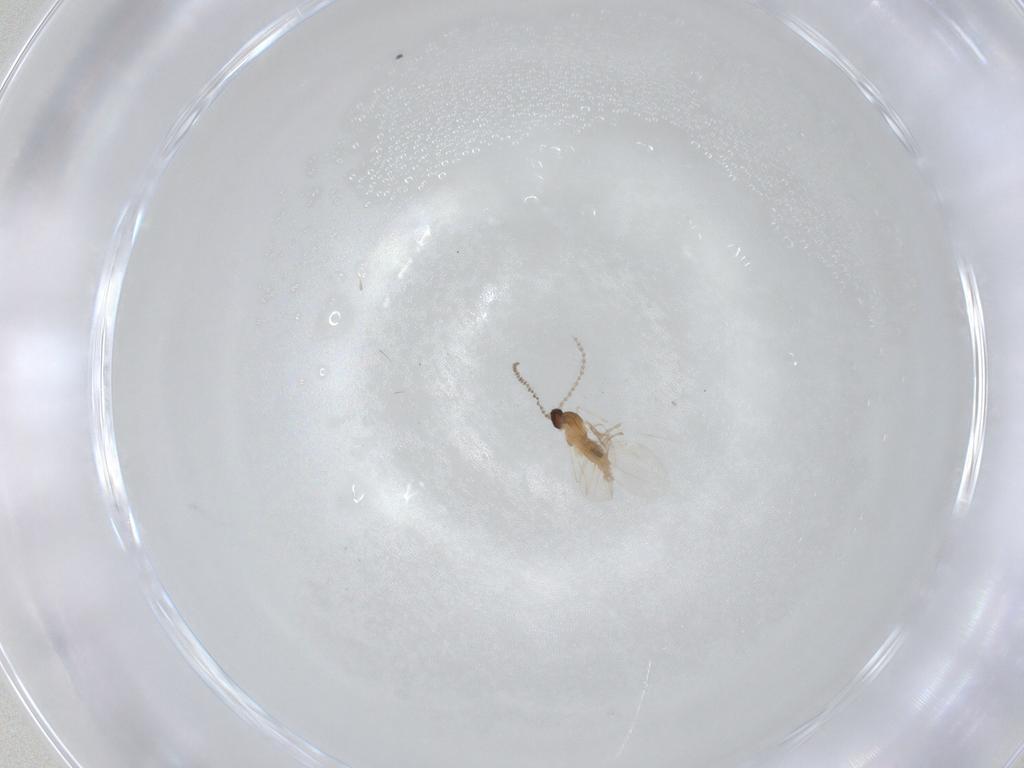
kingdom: Animalia
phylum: Arthropoda
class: Insecta
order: Diptera
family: Cecidomyiidae
